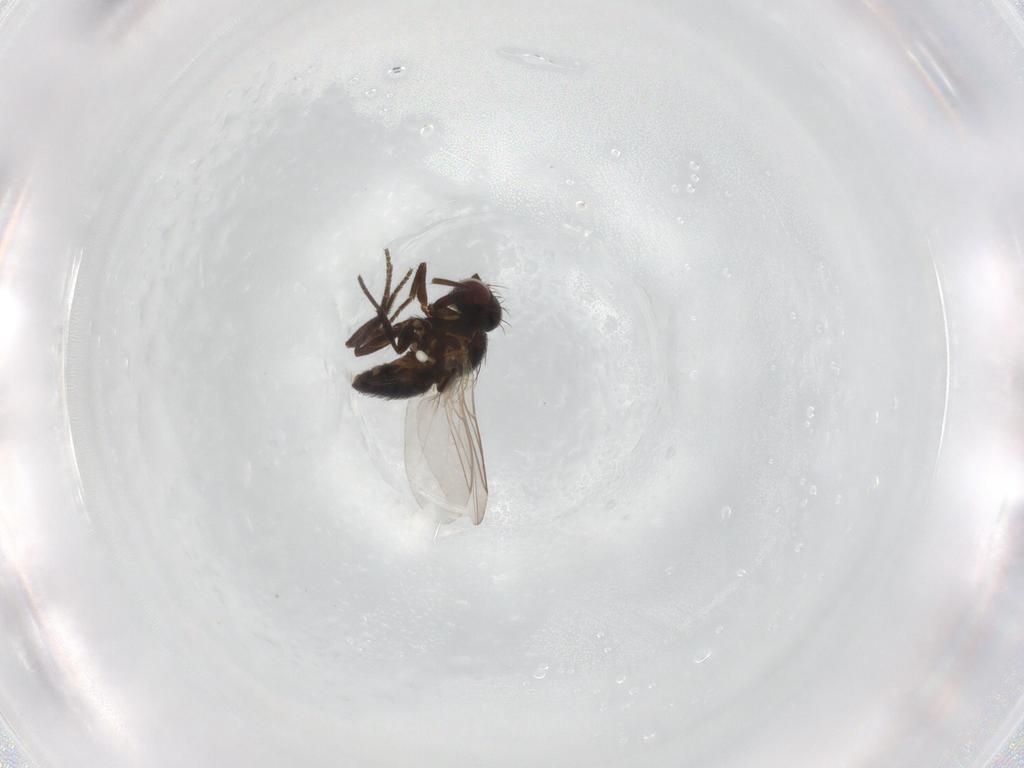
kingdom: Animalia
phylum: Arthropoda
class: Insecta
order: Diptera
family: Agromyzidae
